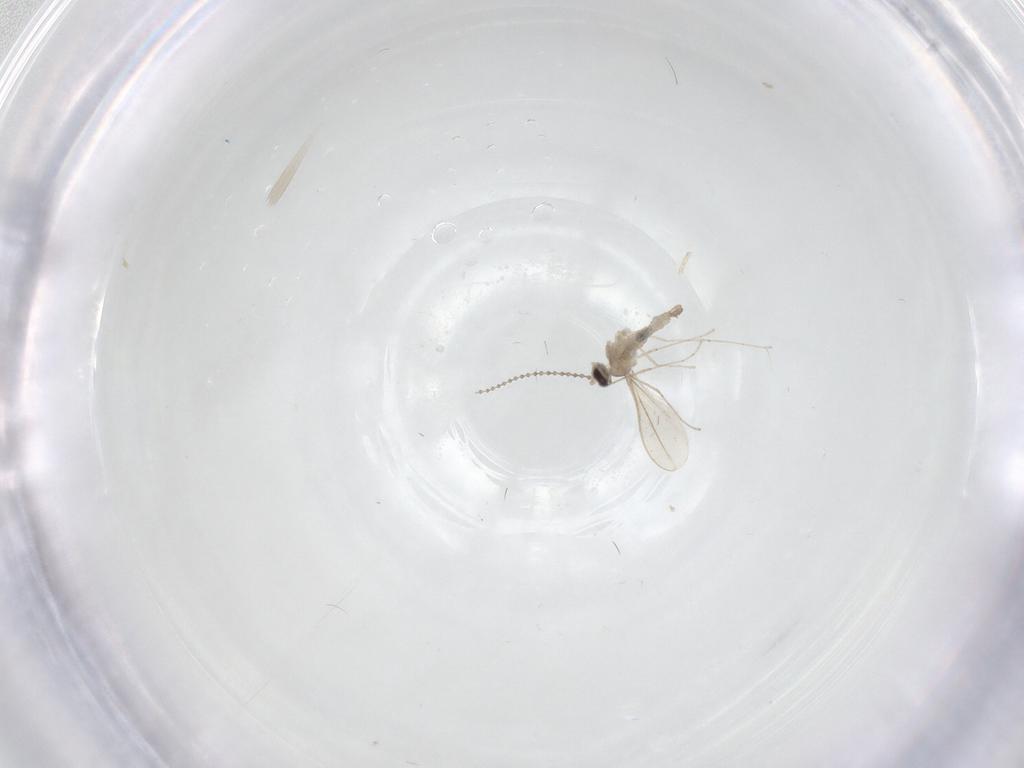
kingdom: Animalia
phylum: Arthropoda
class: Insecta
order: Diptera
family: Cecidomyiidae
